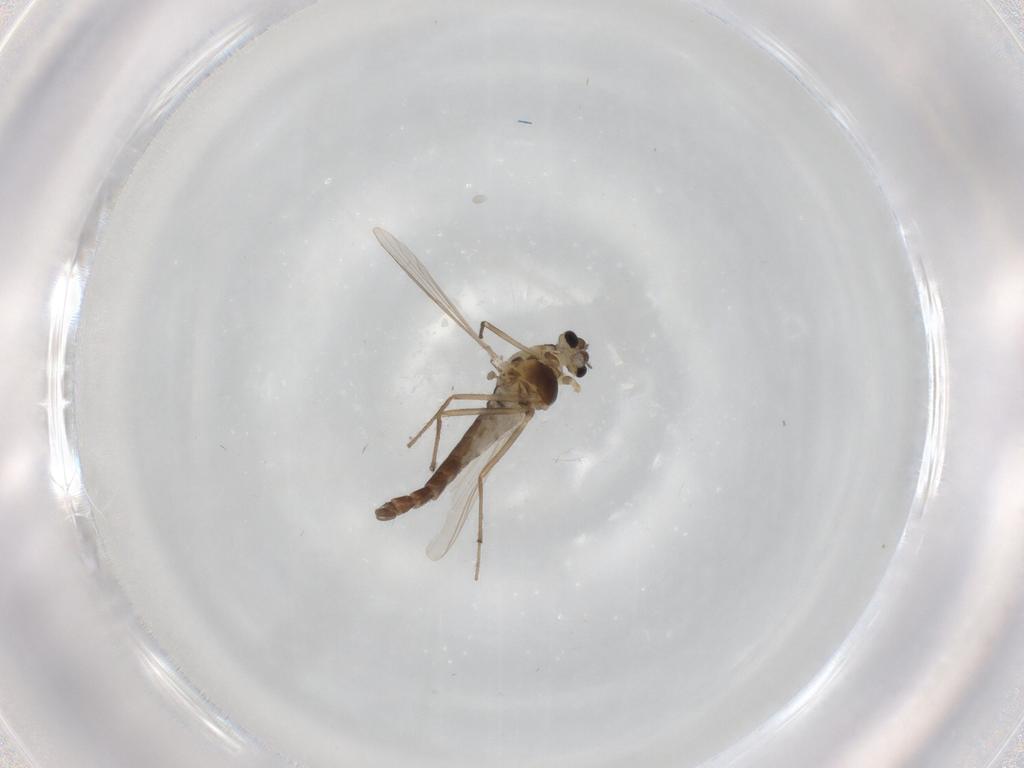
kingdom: Animalia
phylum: Arthropoda
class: Insecta
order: Diptera
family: Chironomidae
